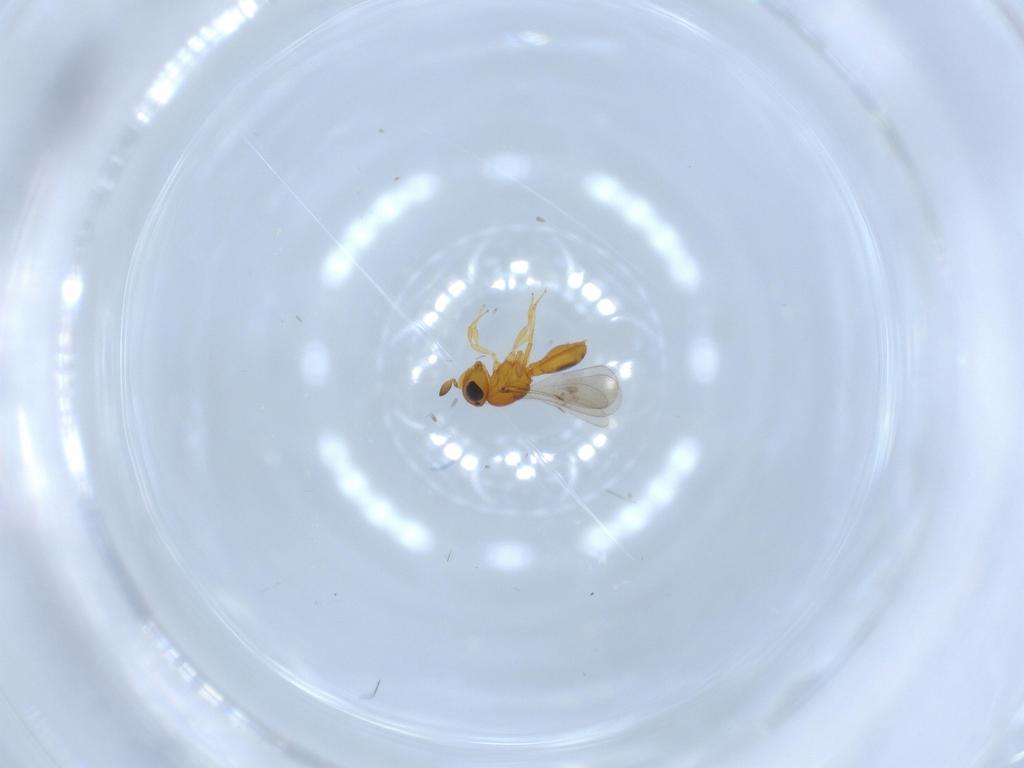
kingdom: Animalia
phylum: Arthropoda
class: Insecta
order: Hymenoptera
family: Scelionidae
